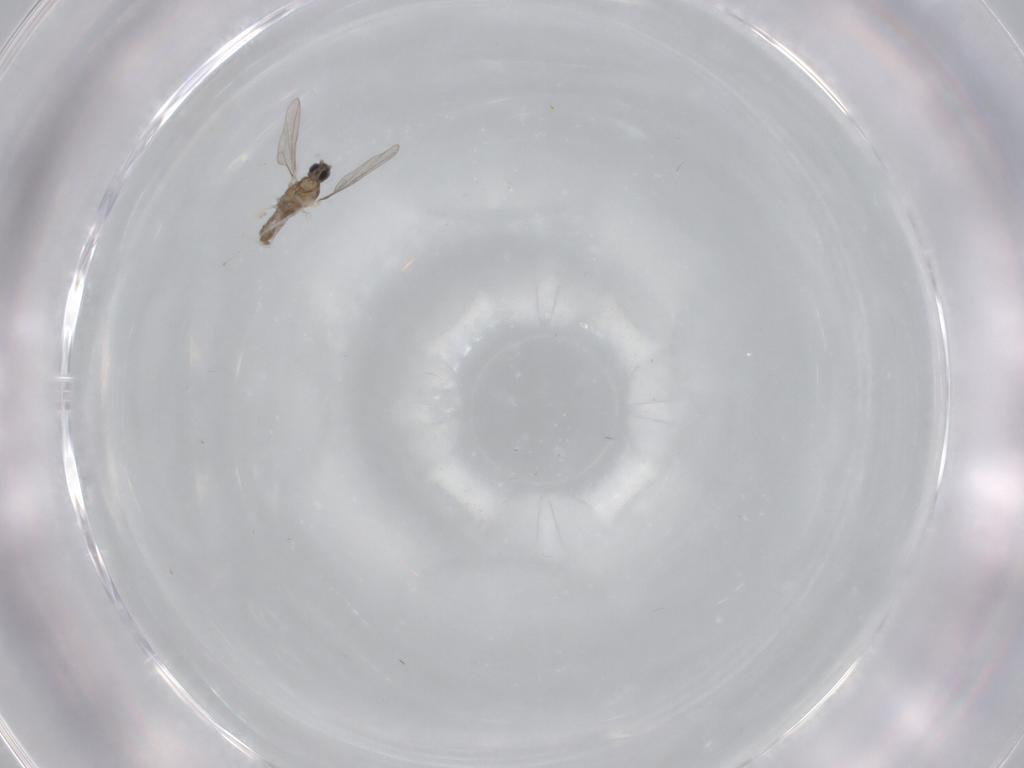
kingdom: Animalia
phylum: Arthropoda
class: Insecta
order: Diptera
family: Cecidomyiidae
